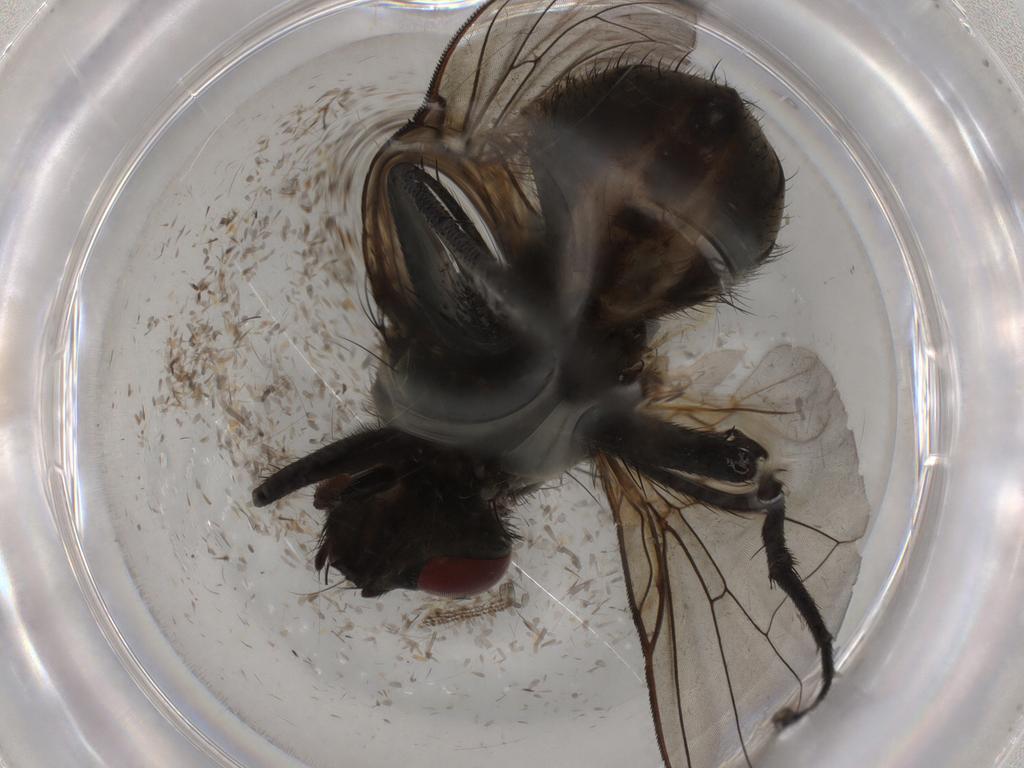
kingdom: Animalia
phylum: Arthropoda
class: Insecta
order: Diptera
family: Muscidae
